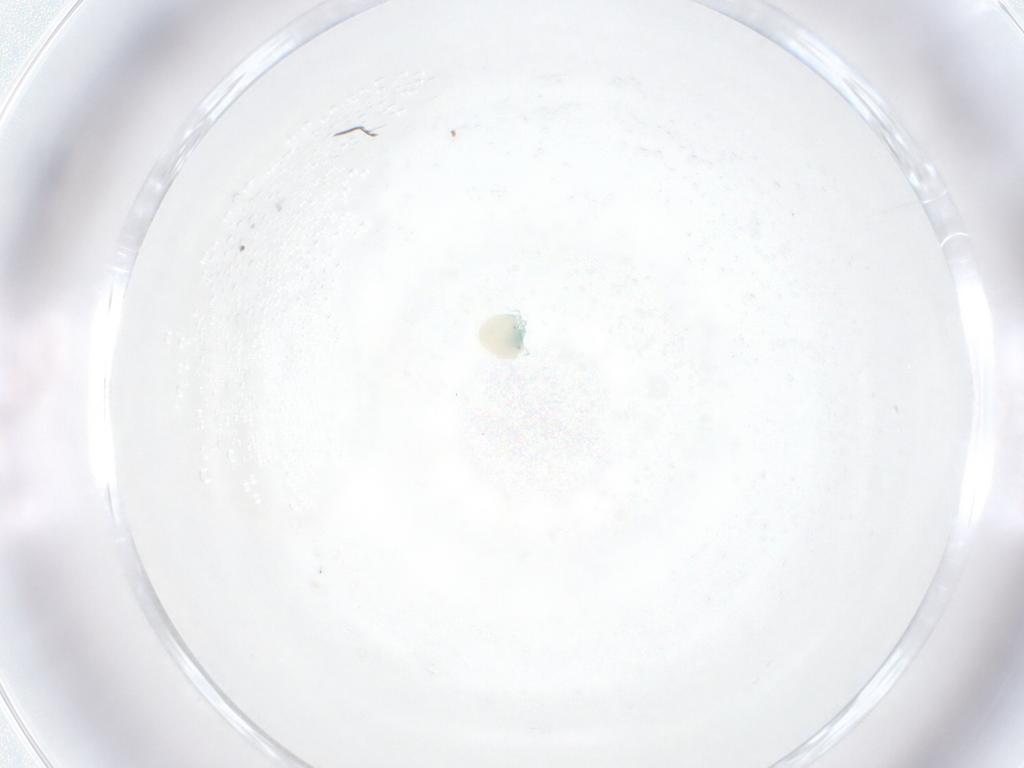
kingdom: Animalia
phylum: Arthropoda
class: Arachnida
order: Trombidiformes
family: Arrenuridae
